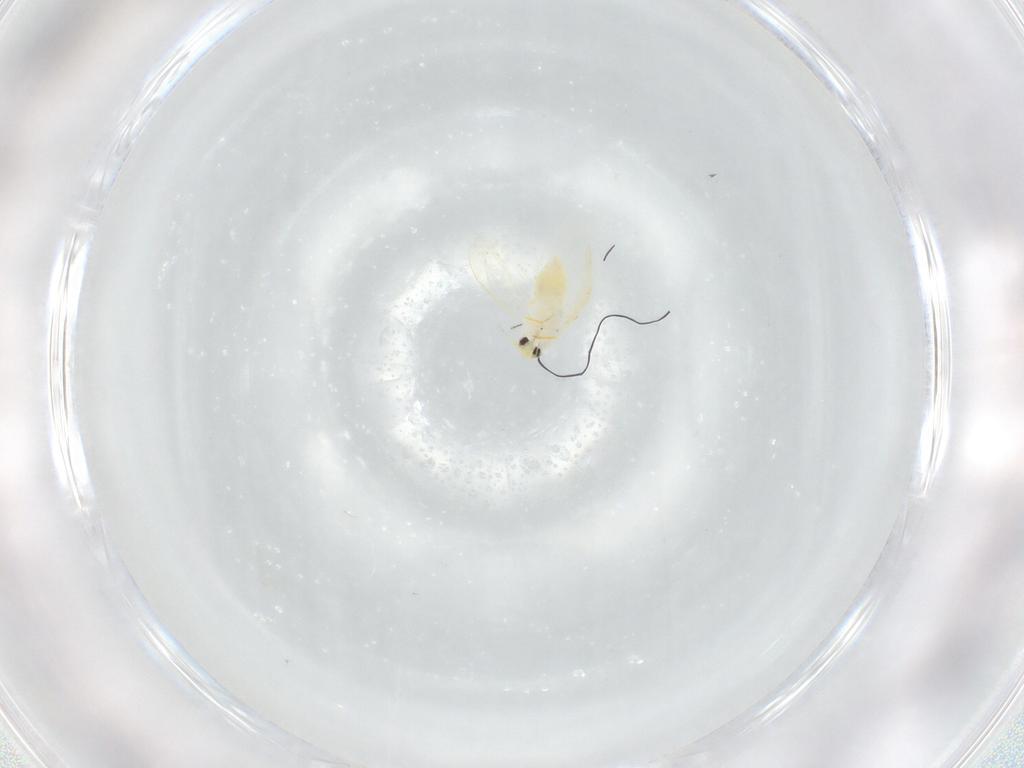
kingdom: Animalia
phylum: Arthropoda
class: Insecta
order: Hemiptera
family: Aleyrodidae
